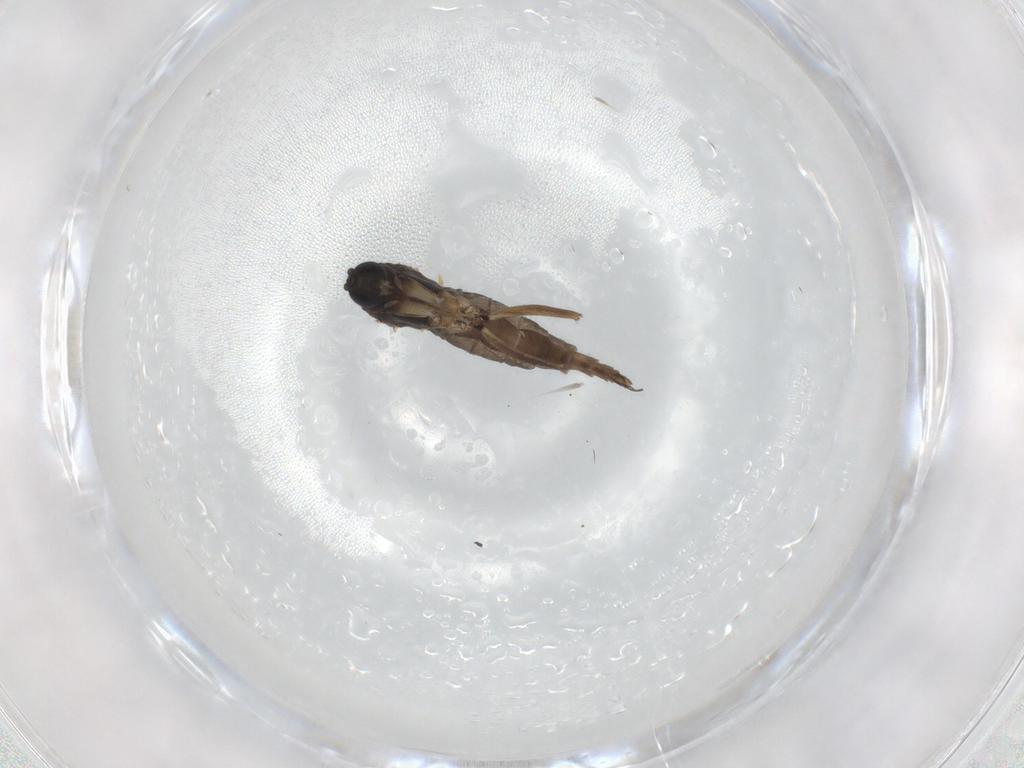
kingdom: Animalia
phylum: Arthropoda
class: Insecta
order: Diptera
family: Sciaridae
